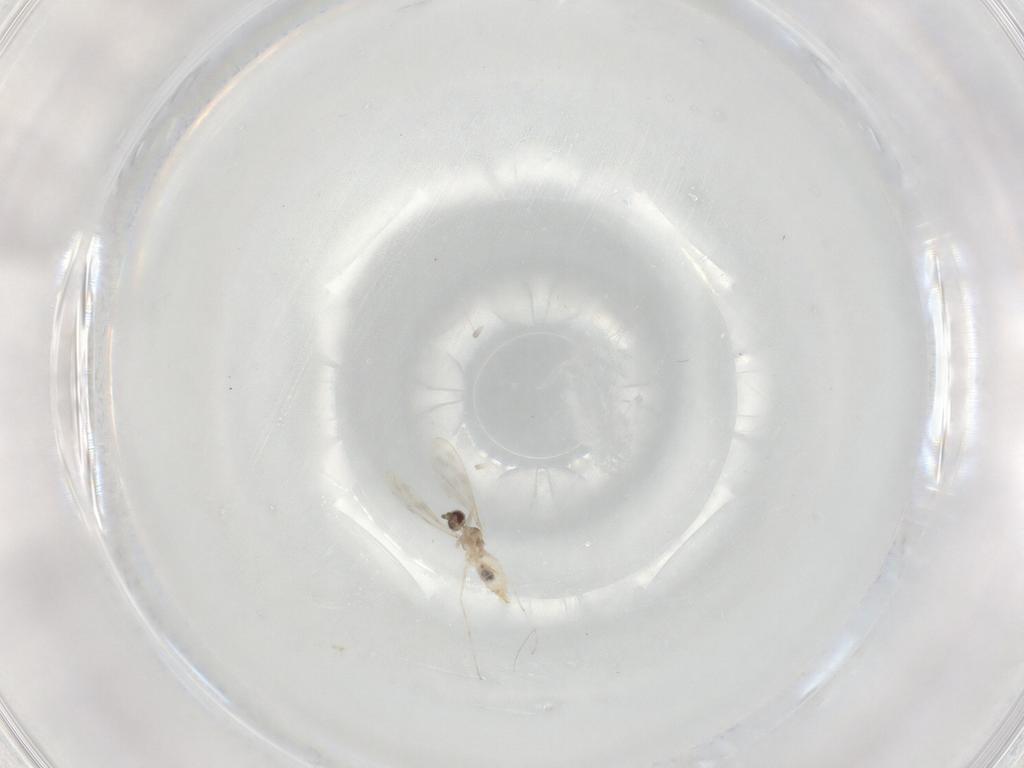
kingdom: Animalia
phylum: Arthropoda
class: Insecta
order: Diptera
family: Cecidomyiidae
